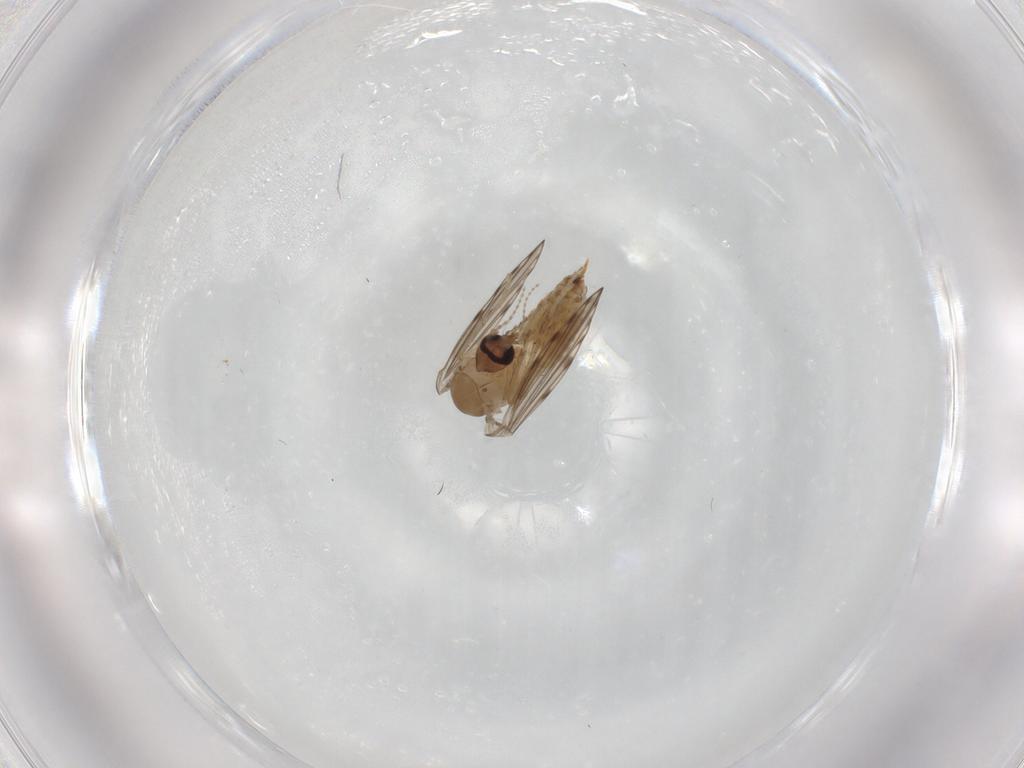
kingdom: Animalia
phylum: Arthropoda
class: Insecta
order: Diptera
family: Psychodidae
